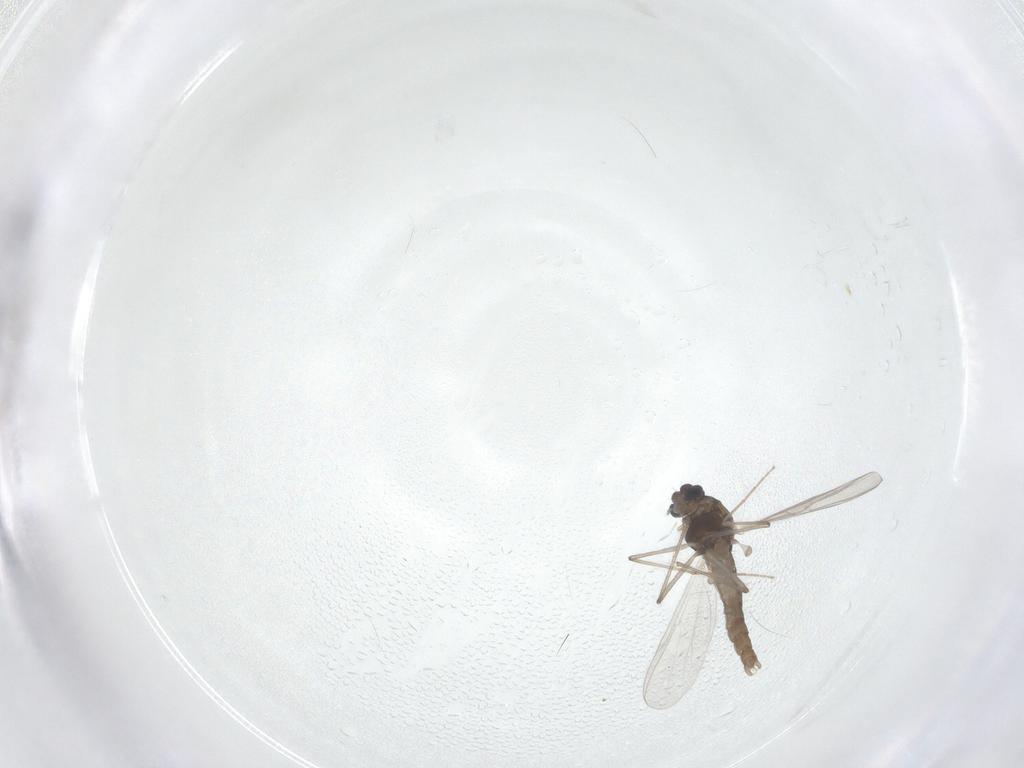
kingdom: Animalia
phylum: Arthropoda
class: Insecta
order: Diptera
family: Chironomidae
